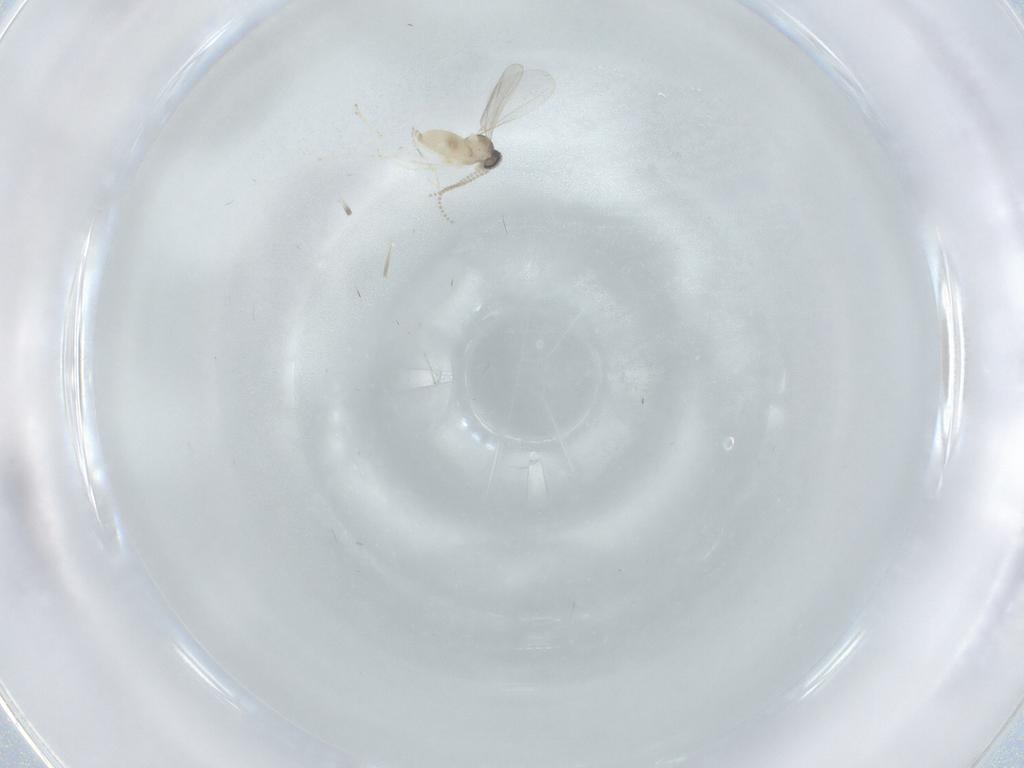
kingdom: Animalia
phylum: Arthropoda
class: Insecta
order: Diptera
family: Cecidomyiidae
